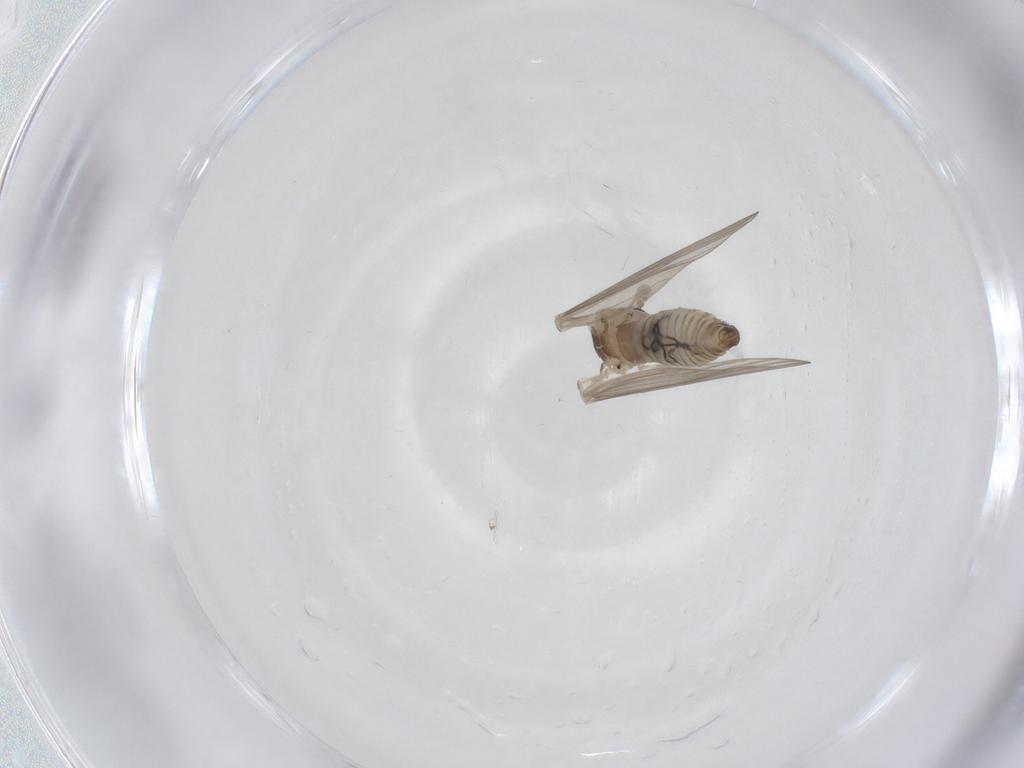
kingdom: Animalia
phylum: Arthropoda
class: Insecta
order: Diptera
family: Psychodidae
